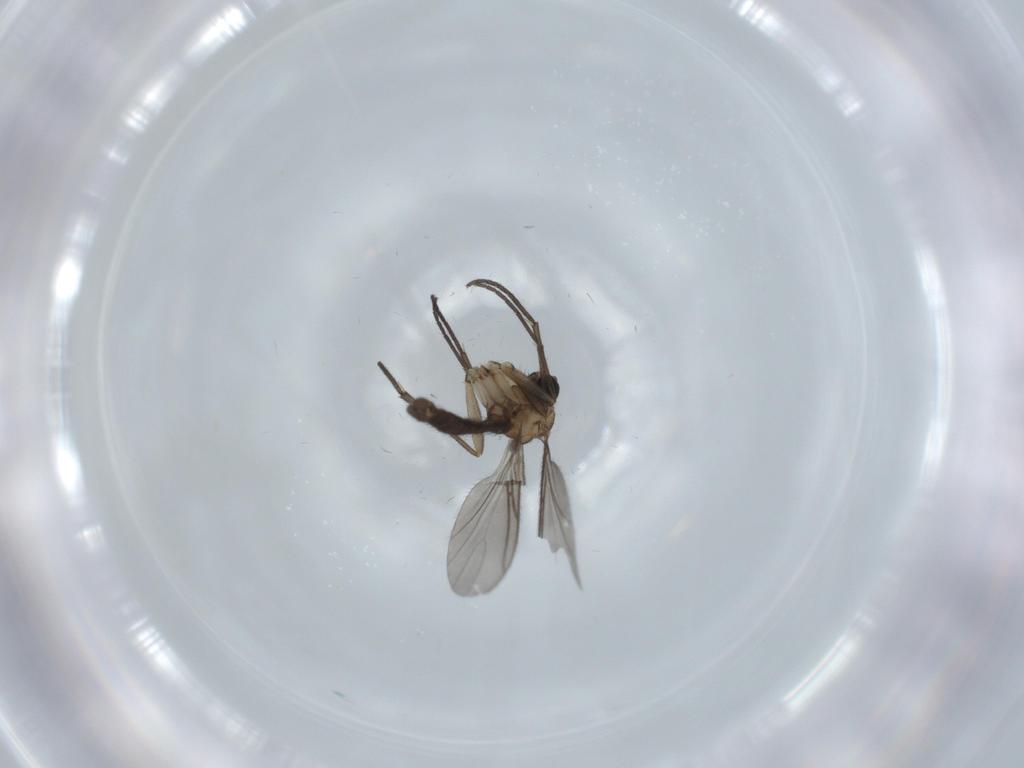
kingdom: Animalia
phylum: Arthropoda
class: Insecta
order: Diptera
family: Sciaridae
